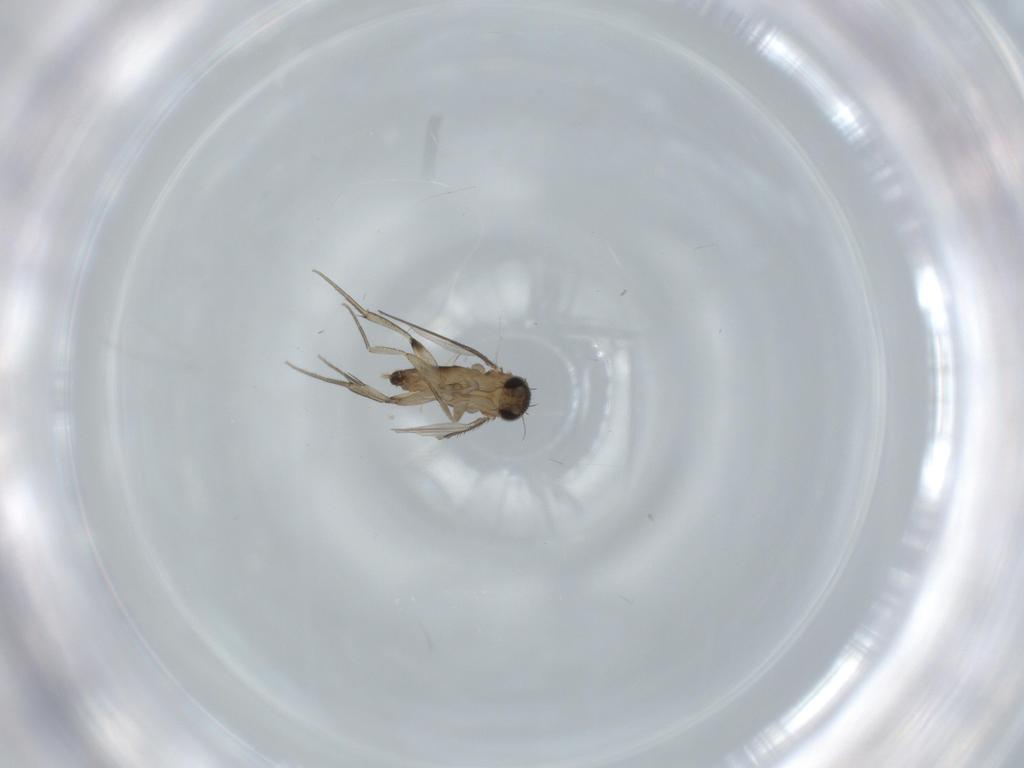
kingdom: Animalia
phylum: Arthropoda
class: Insecta
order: Diptera
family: Phoridae
